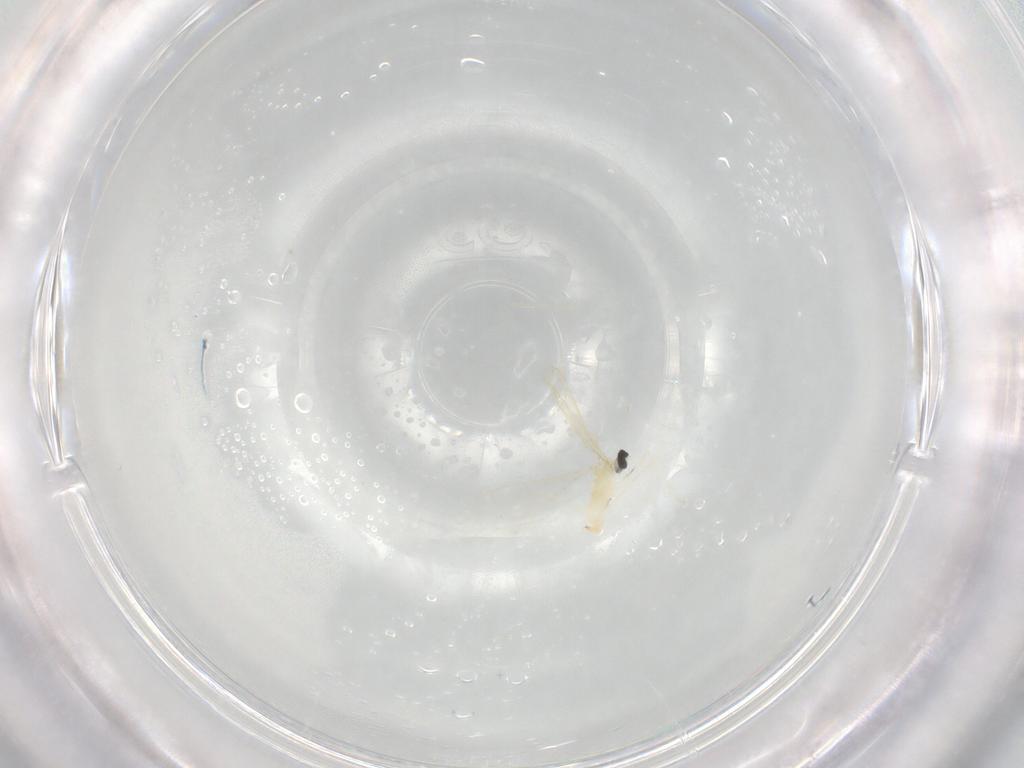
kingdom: Animalia
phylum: Arthropoda
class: Insecta
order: Diptera
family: Cecidomyiidae
